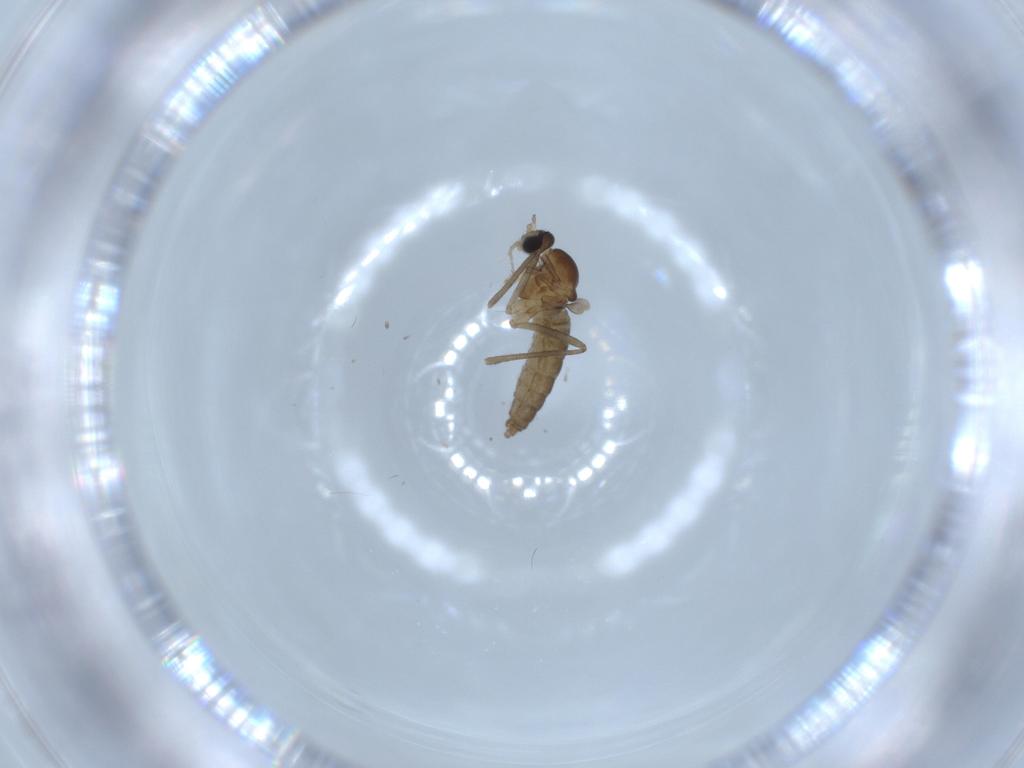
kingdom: Animalia
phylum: Arthropoda
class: Insecta
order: Diptera
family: Cecidomyiidae
